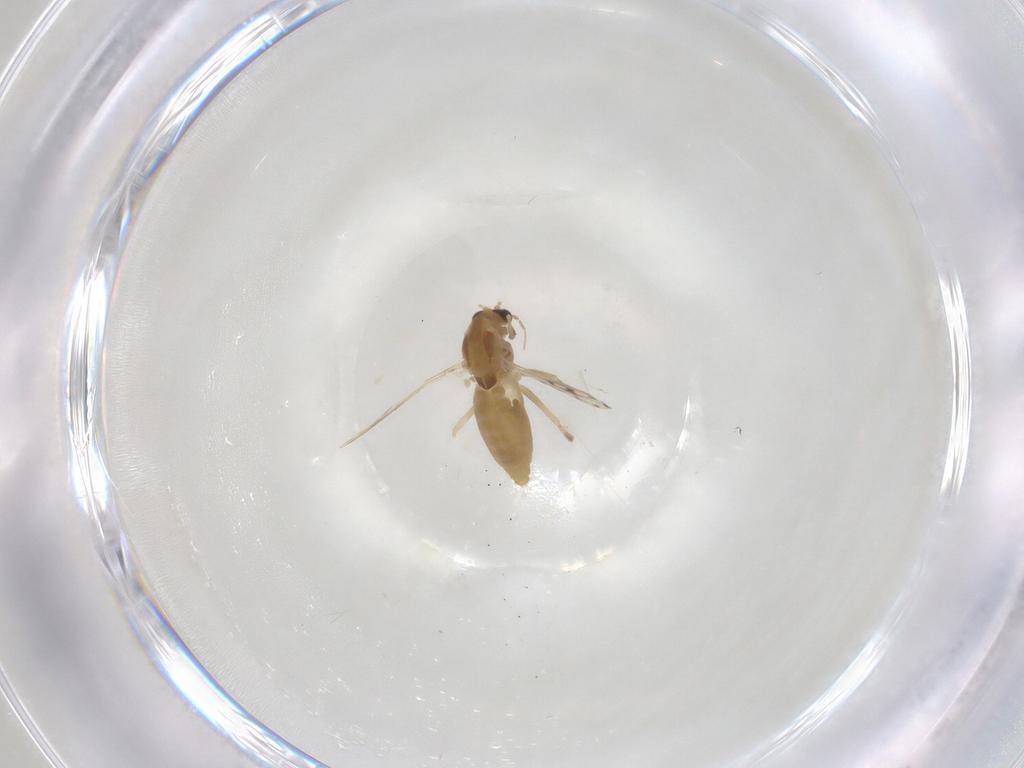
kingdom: Animalia
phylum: Arthropoda
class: Insecta
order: Diptera
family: Chironomidae
